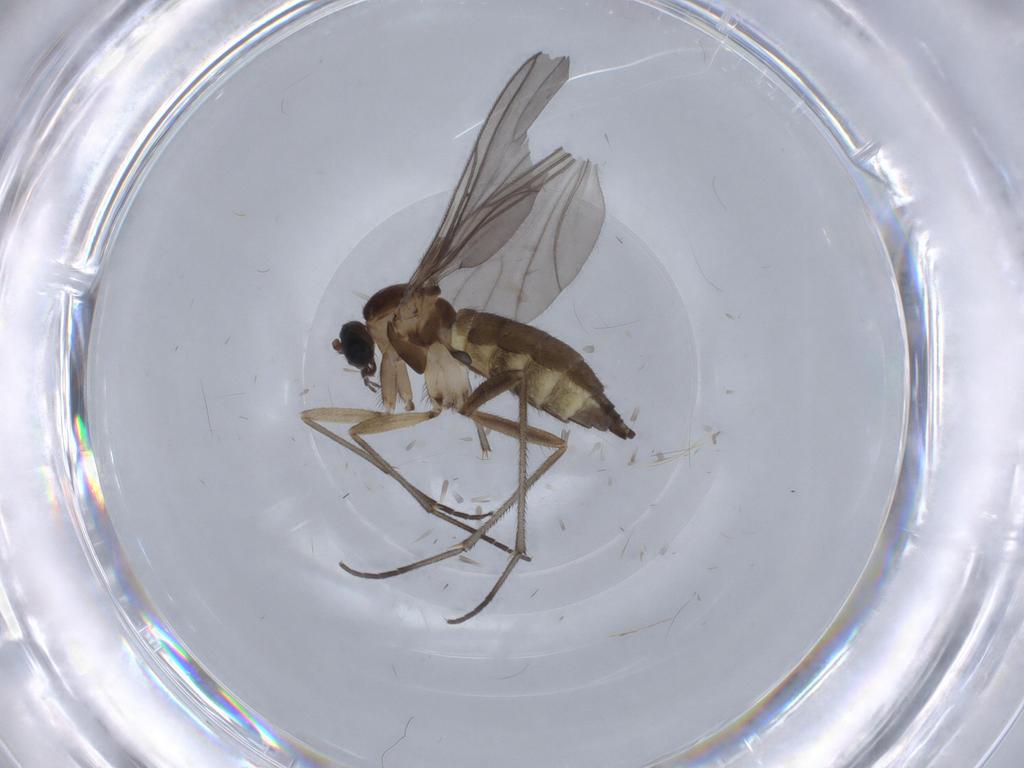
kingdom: Animalia
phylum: Arthropoda
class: Insecta
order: Diptera
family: Sciaridae
